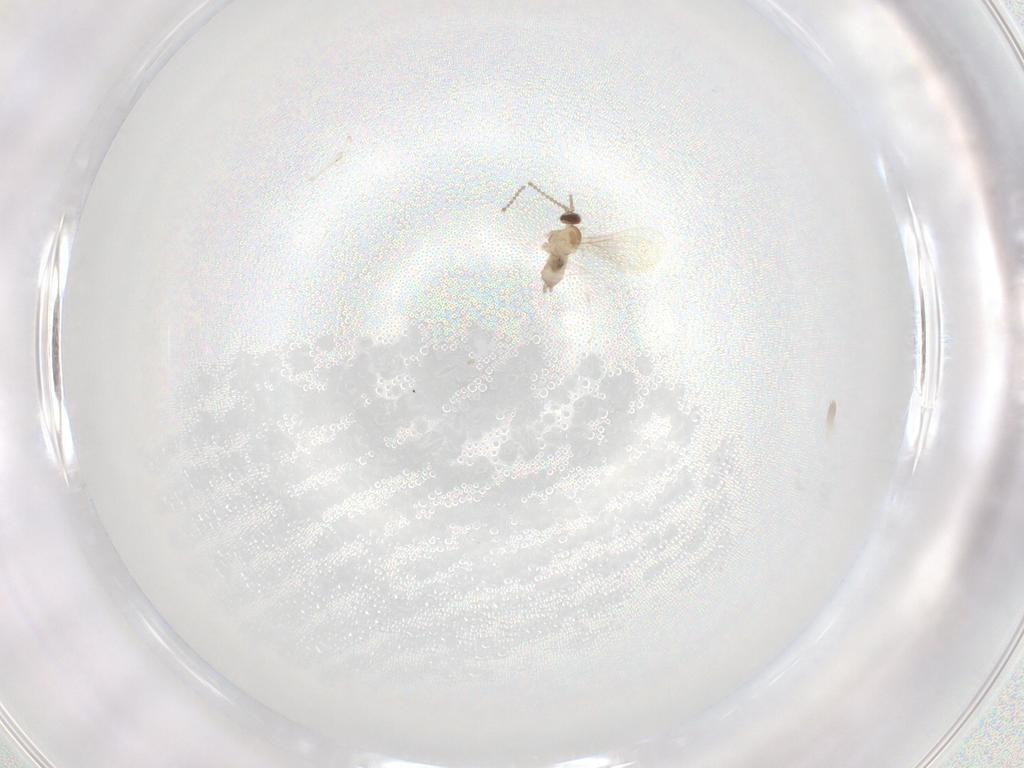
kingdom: Animalia
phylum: Arthropoda
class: Insecta
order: Diptera
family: Cecidomyiidae
